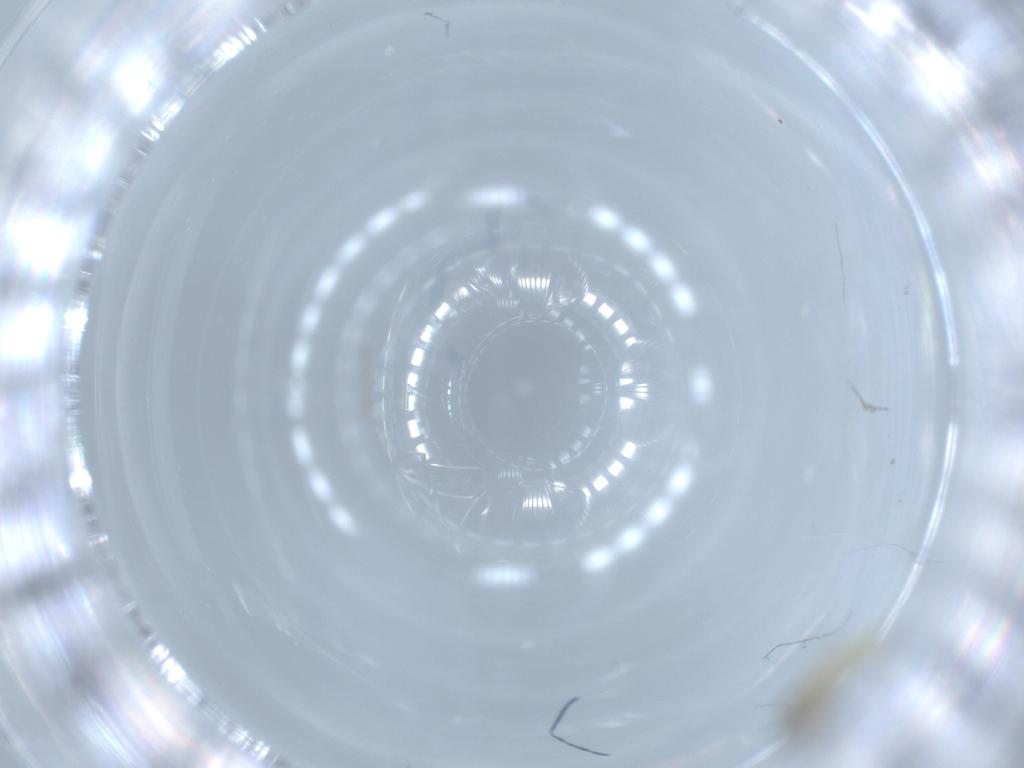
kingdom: Animalia
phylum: Arthropoda
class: Insecta
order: Diptera
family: Cecidomyiidae
